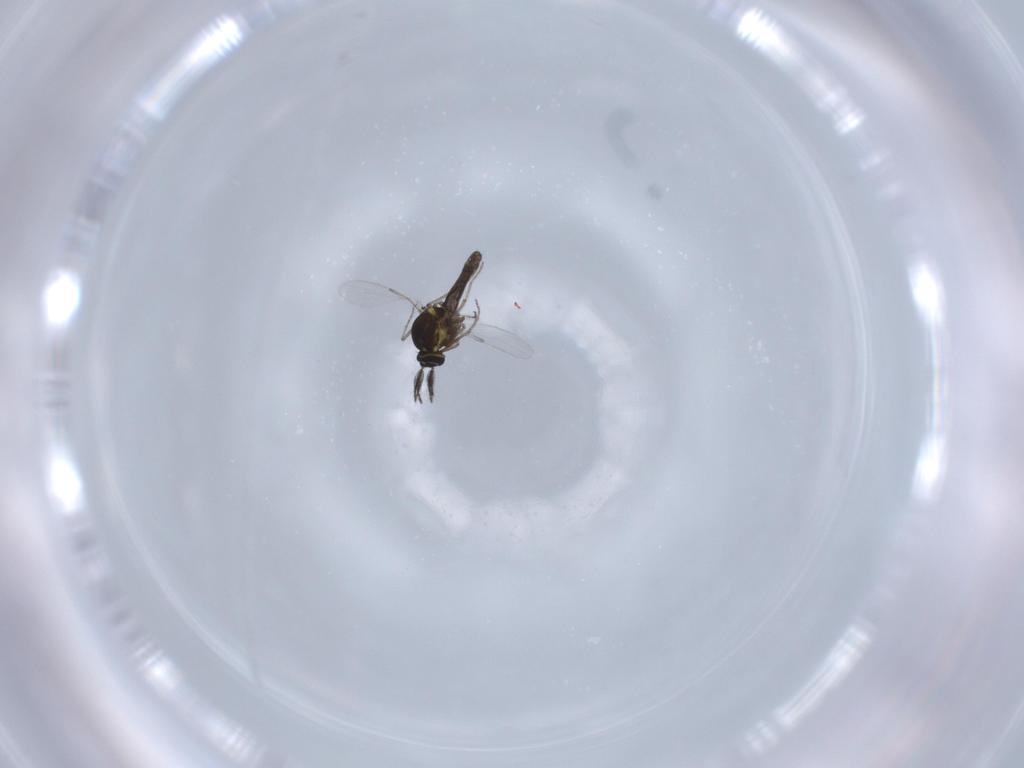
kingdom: Animalia
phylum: Arthropoda
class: Insecta
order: Diptera
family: Ceratopogonidae
